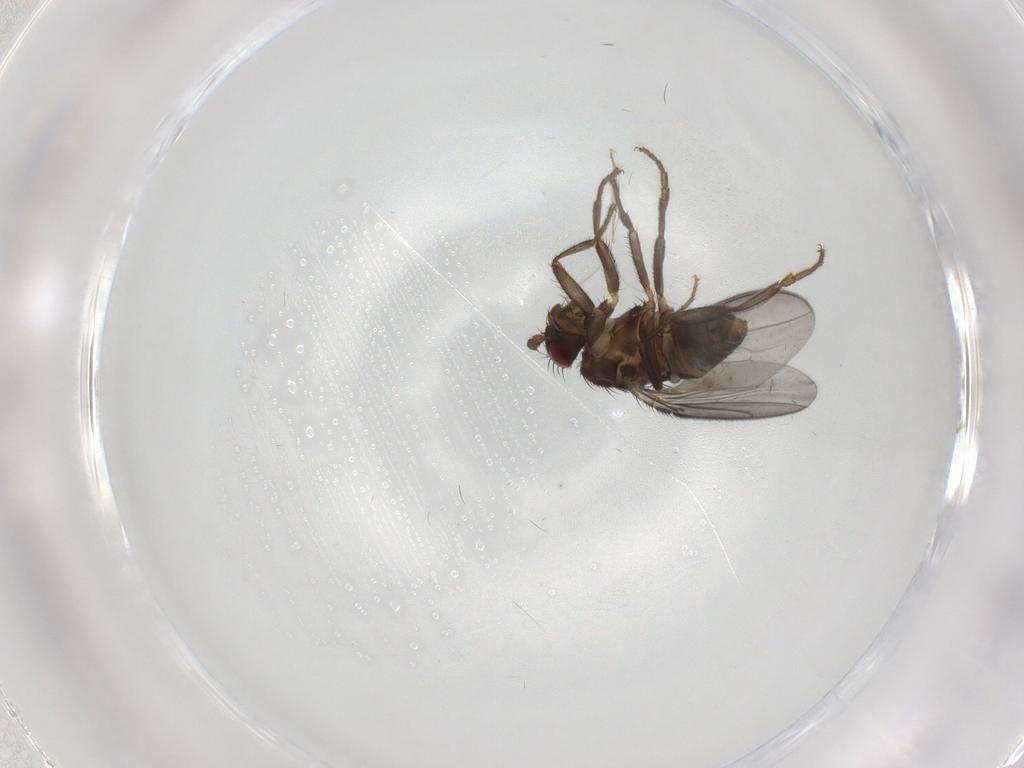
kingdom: Animalia
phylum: Arthropoda
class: Insecta
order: Diptera
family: Sphaeroceridae
